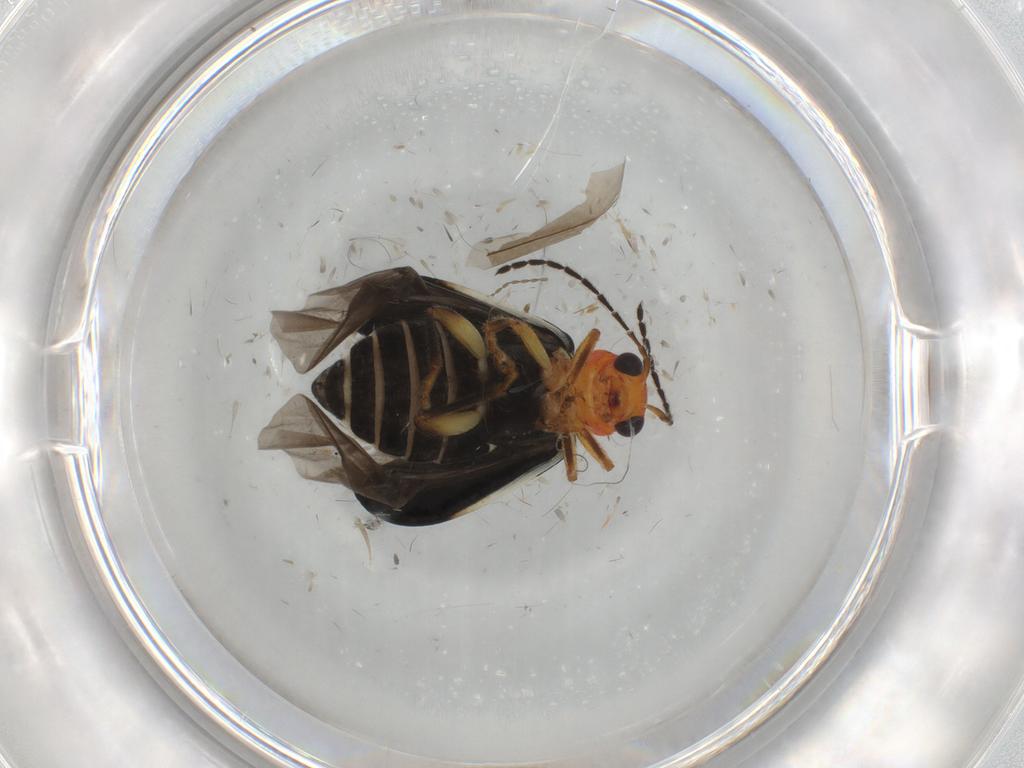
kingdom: Animalia
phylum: Arthropoda
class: Insecta
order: Coleoptera
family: Chrysomelidae
